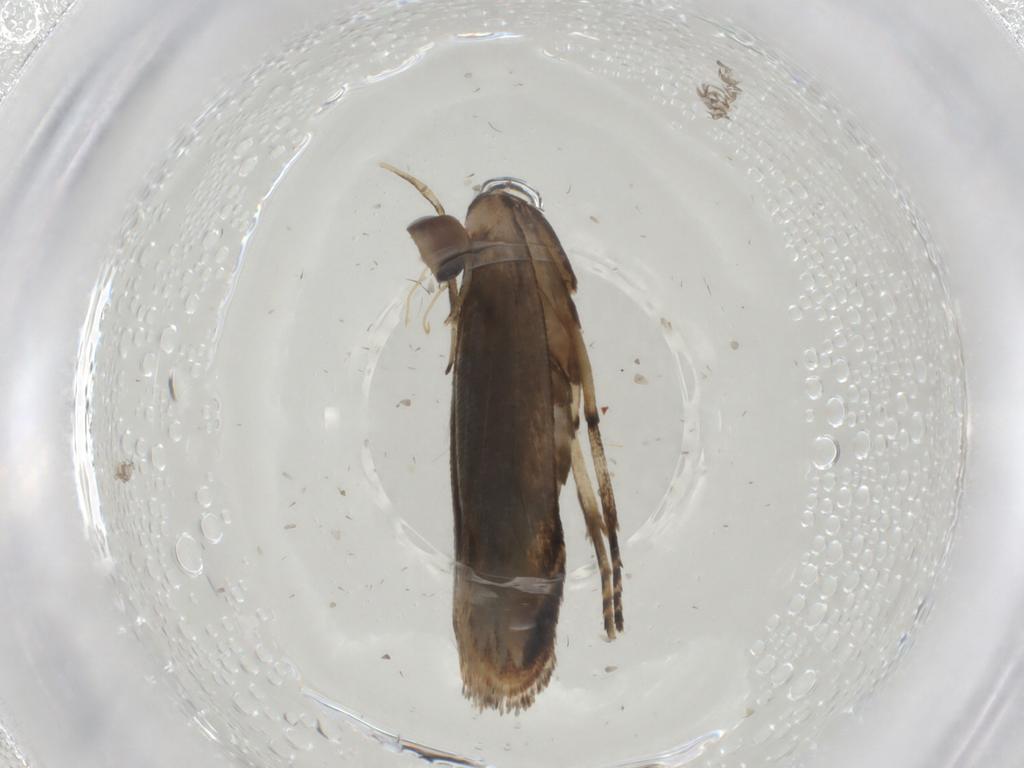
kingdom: Animalia
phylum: Arthropoda
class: Insecta
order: Lepidoptera
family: Gelechiidae
